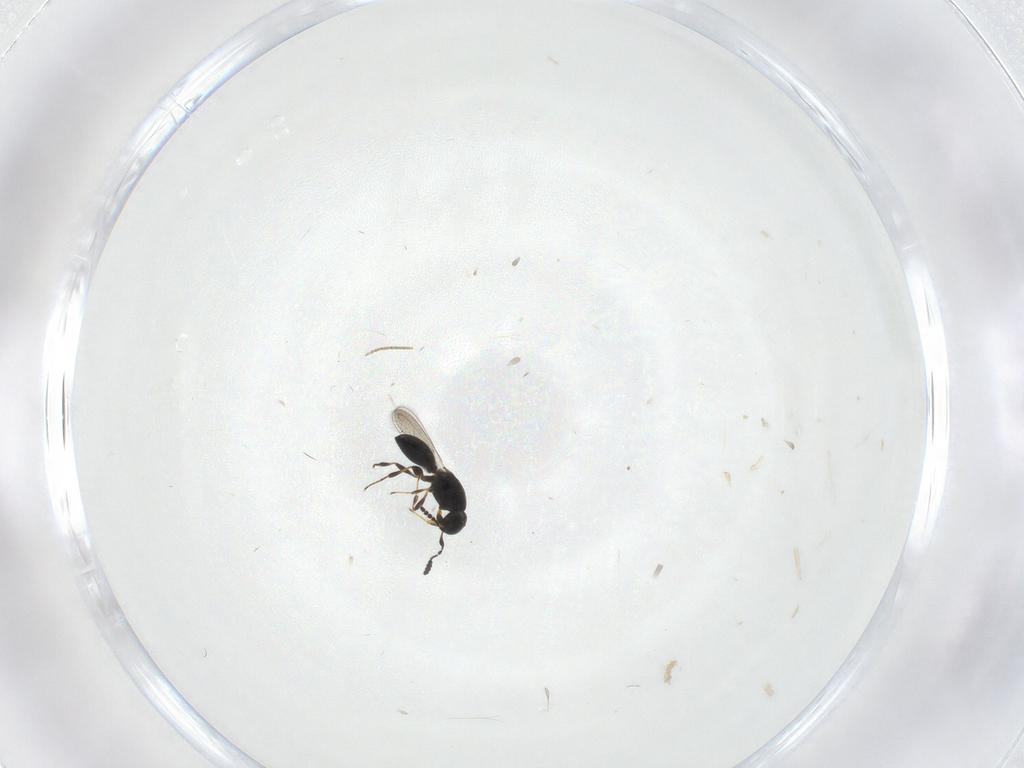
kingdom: Animalia
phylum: Arthropoda
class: Insecta
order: Hymenoptera
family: Platygastridae
